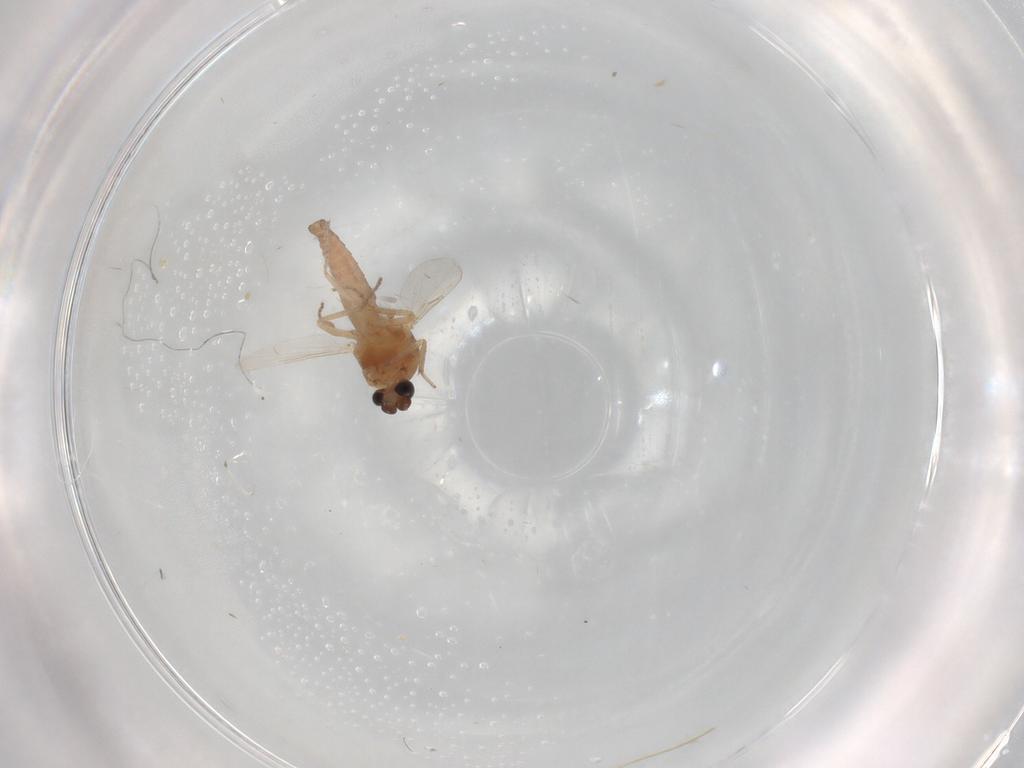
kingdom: Animalia
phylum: Arthropoda
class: Insecta
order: Diptera
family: Ceratopogonidae
